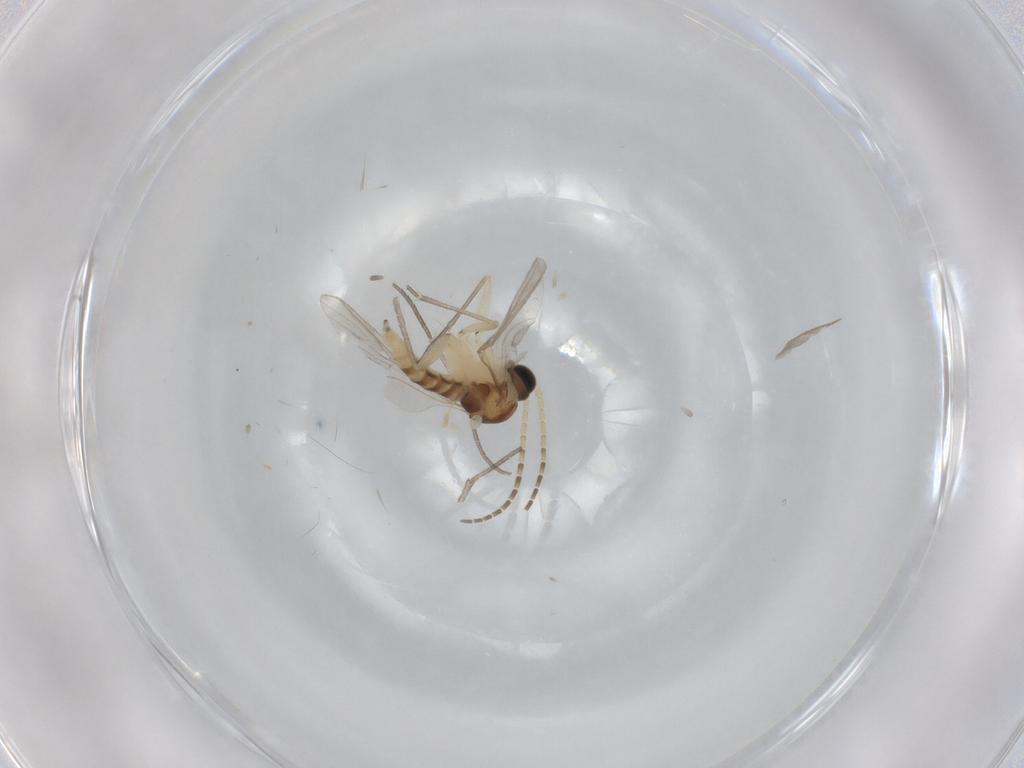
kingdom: Animalia
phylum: Arthropoda
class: Insecta
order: Diptera
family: Sciaridae
